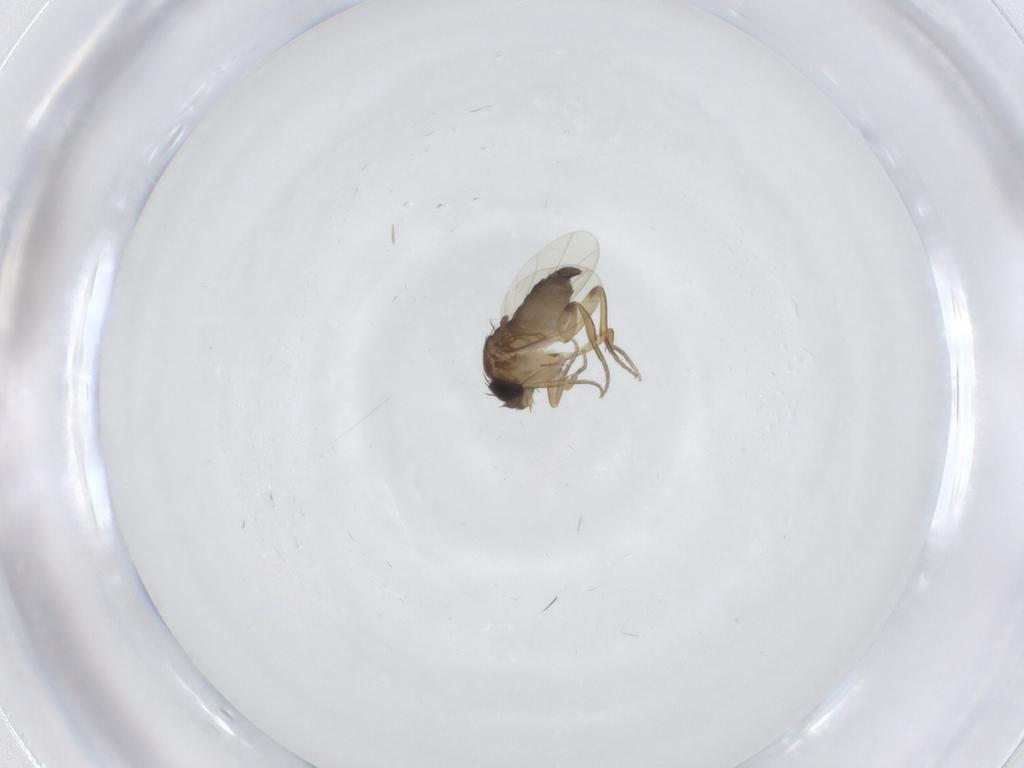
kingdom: Animalia
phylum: Arthropoda
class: Insecta
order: Diptera
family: Phoridae
